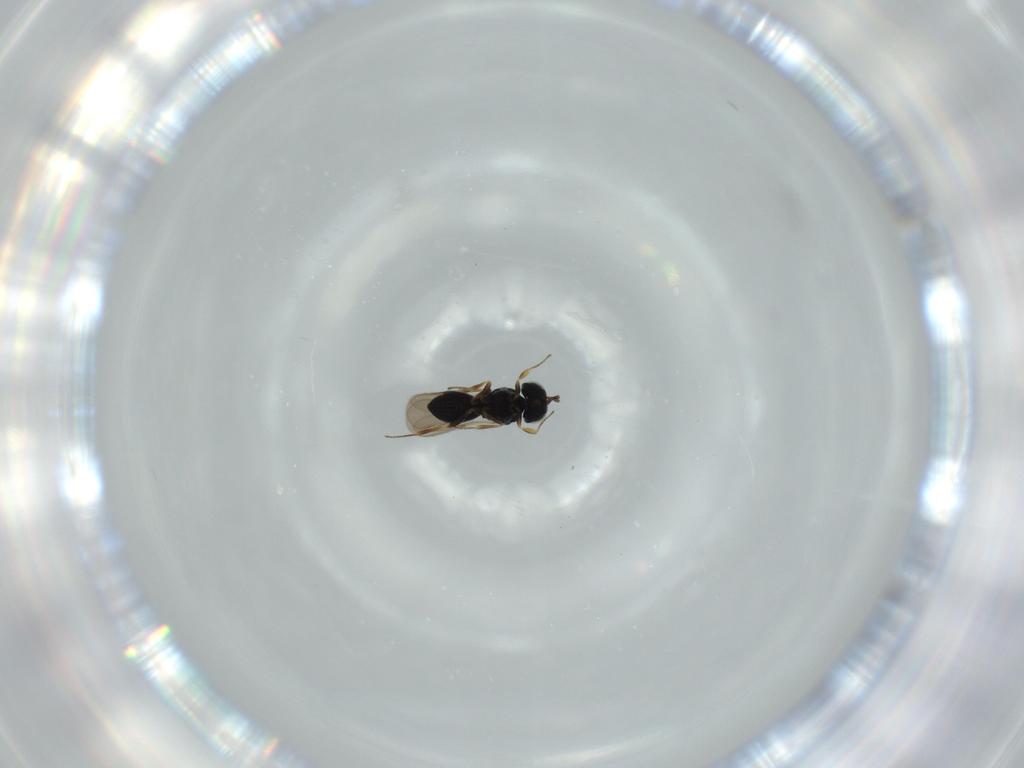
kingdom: Animalia
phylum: Arthropoda
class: Insecta
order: Hymenoptera
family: Scelionidae
